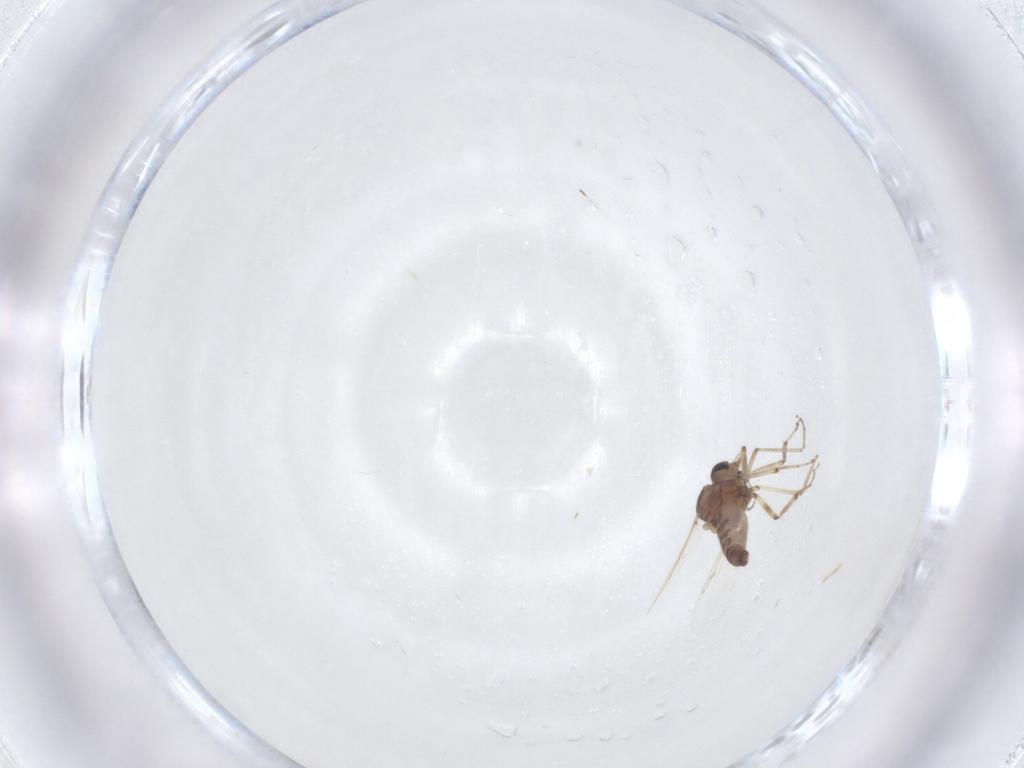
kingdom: Animalia
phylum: Arthropoda
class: Insecta
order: Diptera
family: Ceratopogonidae
